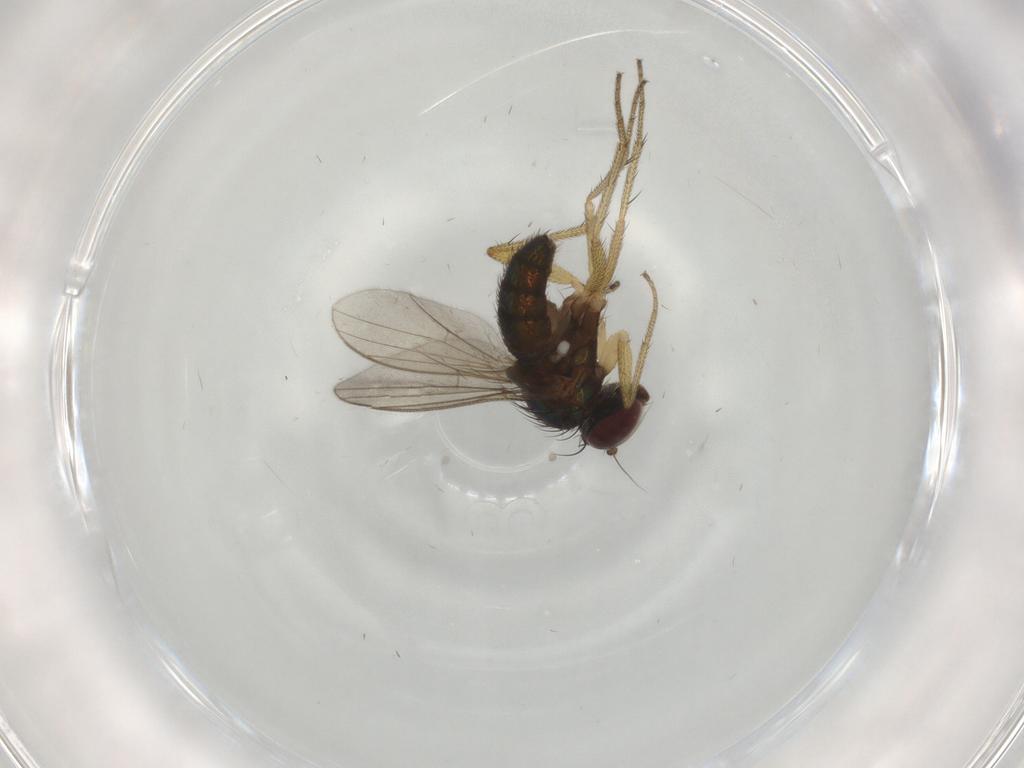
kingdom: Animalia
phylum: Arthropoda
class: Insecta
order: Diptera
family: Dolichopodidae
